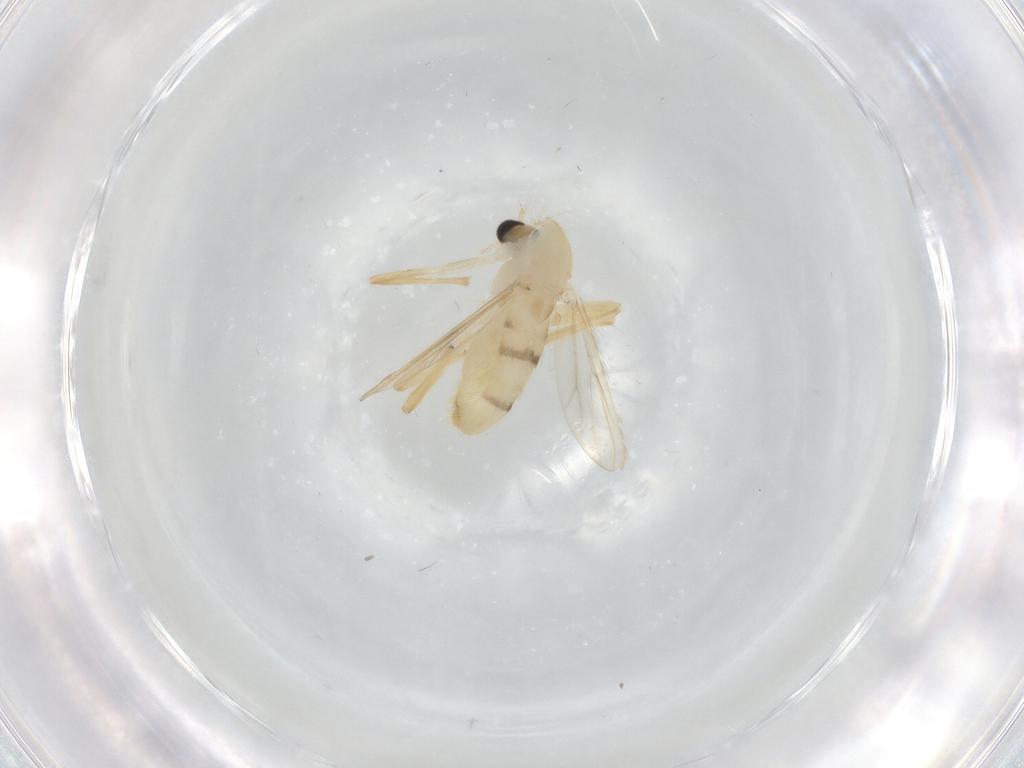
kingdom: Animalia
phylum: Arthropoda
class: Insecta
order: Diptera
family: Chironomidae
